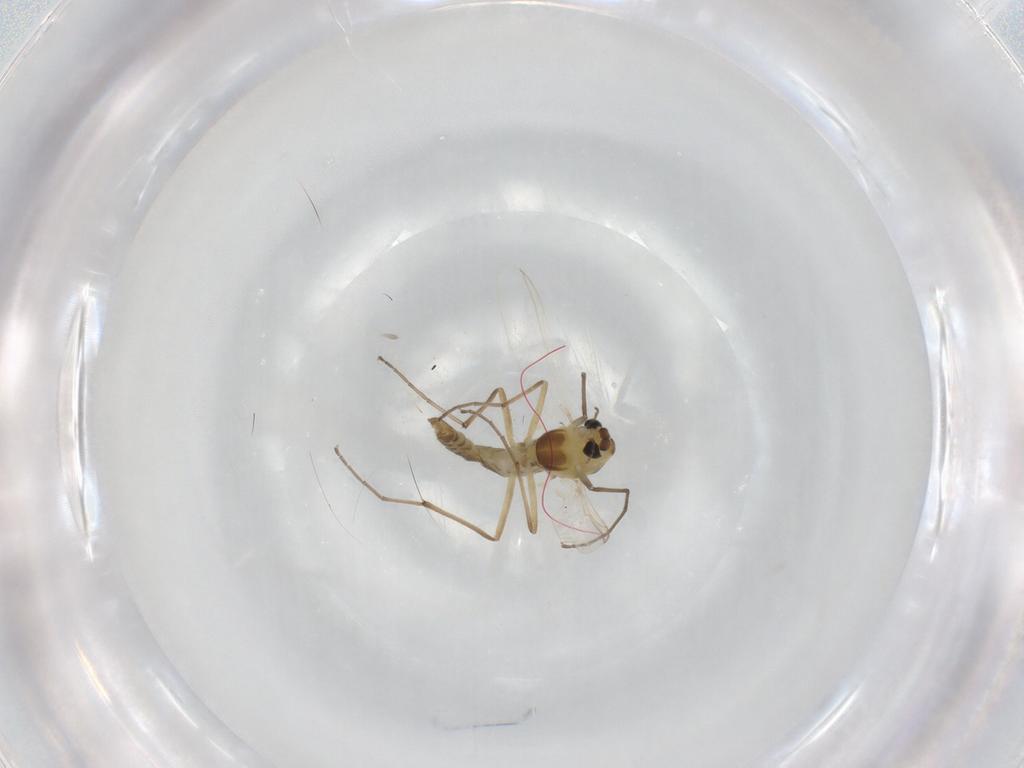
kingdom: Animalia
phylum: Arthropoda
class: Insecta
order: Diptera
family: Chironomidae
